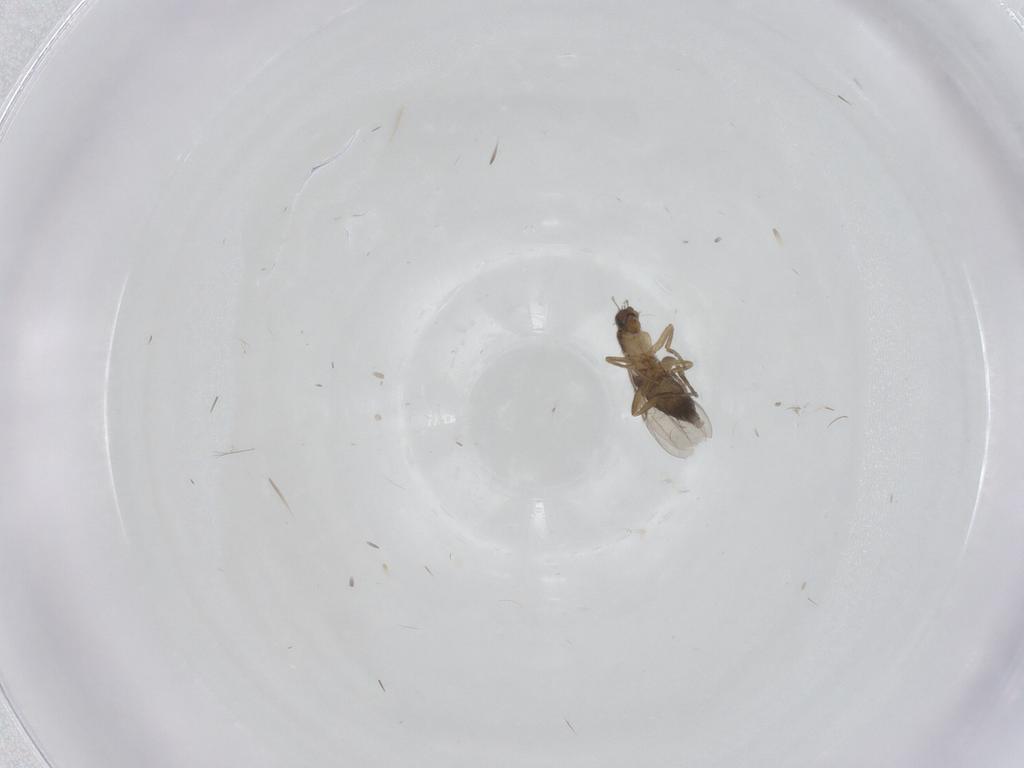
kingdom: Animalia
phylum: Arthropoda
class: Insecta
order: Diptera
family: Phoridae
